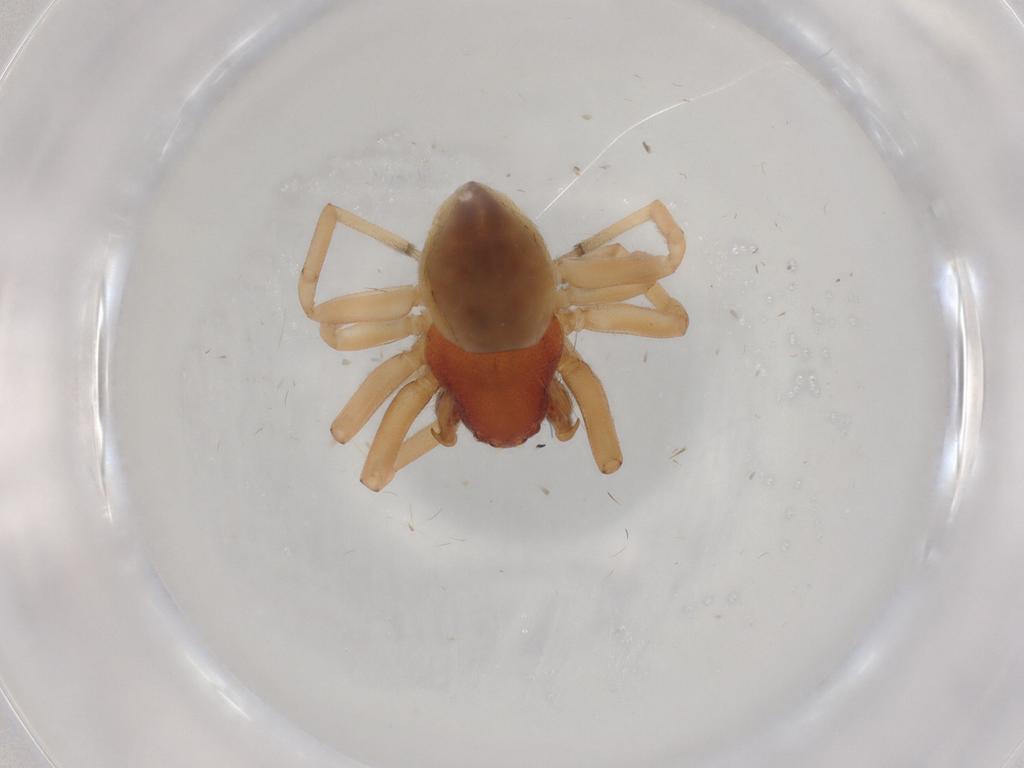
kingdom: Animalia
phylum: Arthropoda
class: Arachnida
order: Araneae
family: Trachelidae
